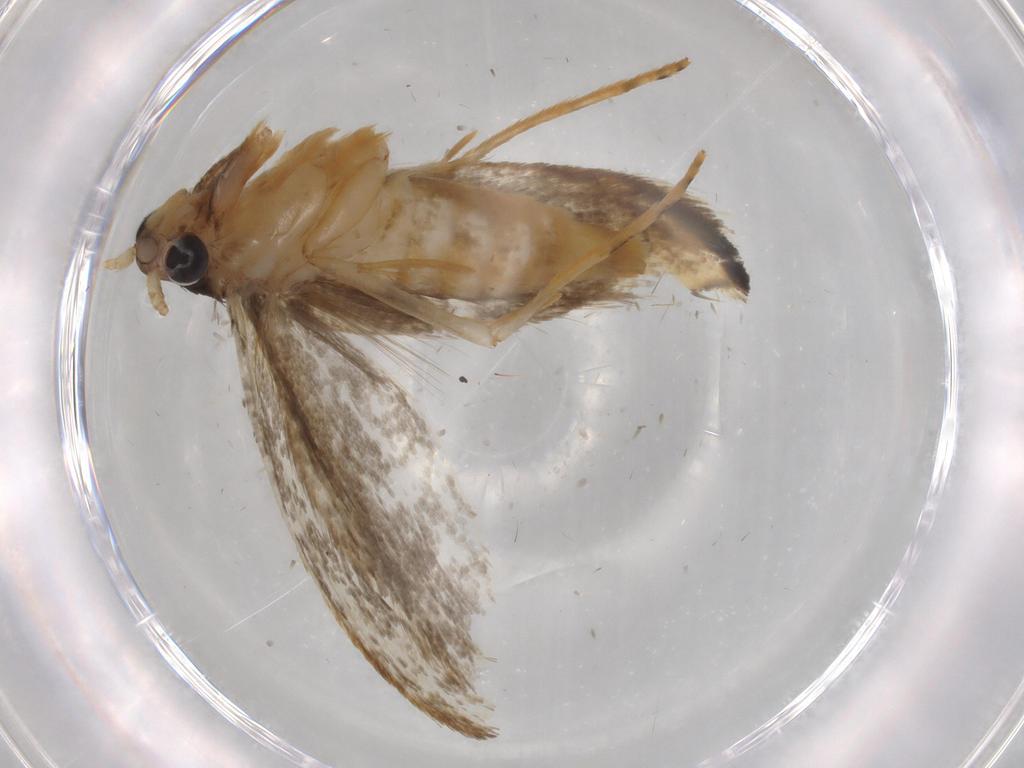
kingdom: Animalia
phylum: Arthropoda
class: Insecta
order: Lepidoptera
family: Tineidae
